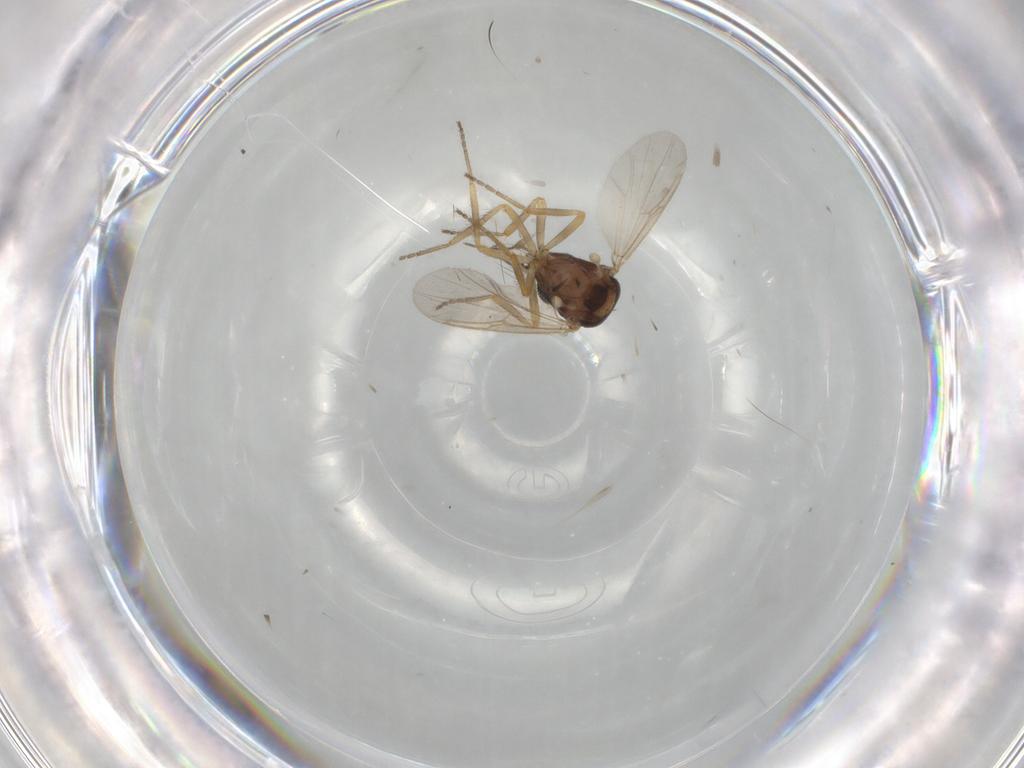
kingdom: Animalia
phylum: Arthropoda
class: Insecta
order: Diptera
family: Ceratopogonidae
